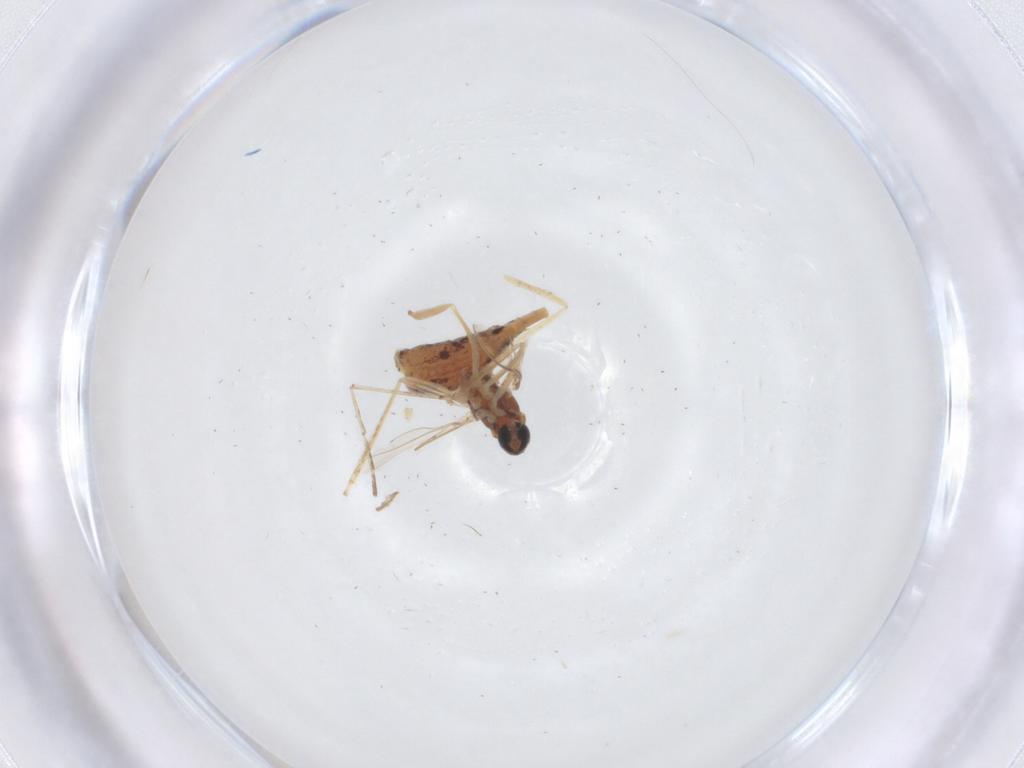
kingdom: Animalia
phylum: Arthropoda
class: Insecta
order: Diptera
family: Cecidomyiidae
